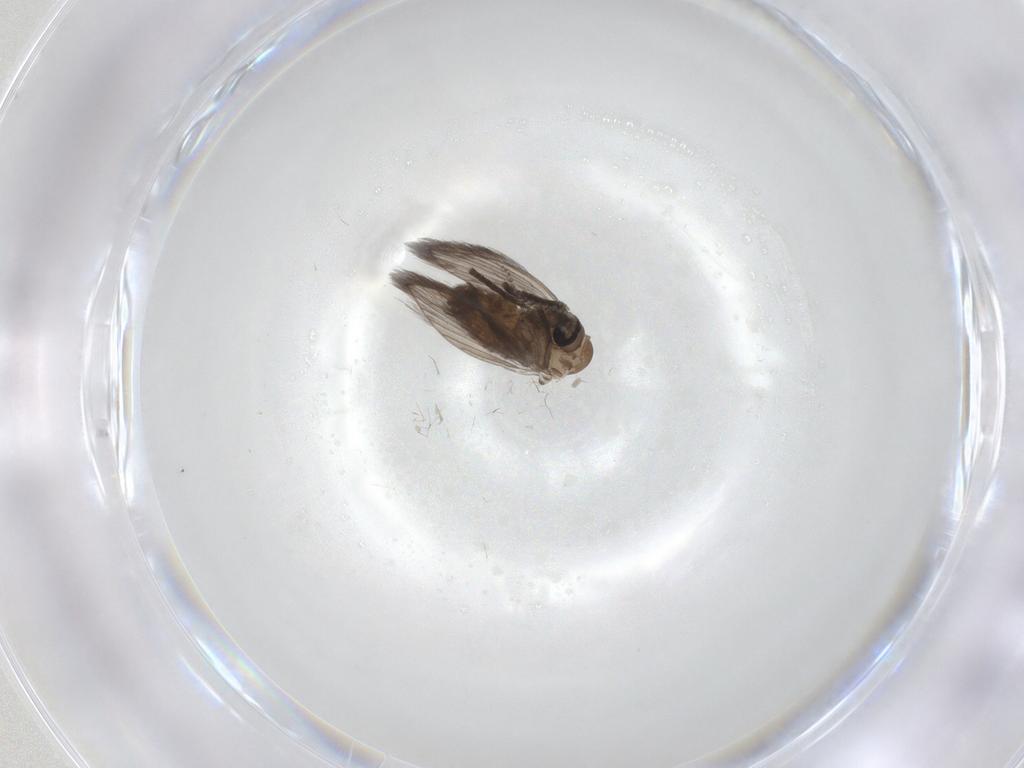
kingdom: Animalia
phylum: Arthropoda
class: Insecta
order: Diptera
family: Psychodidae
